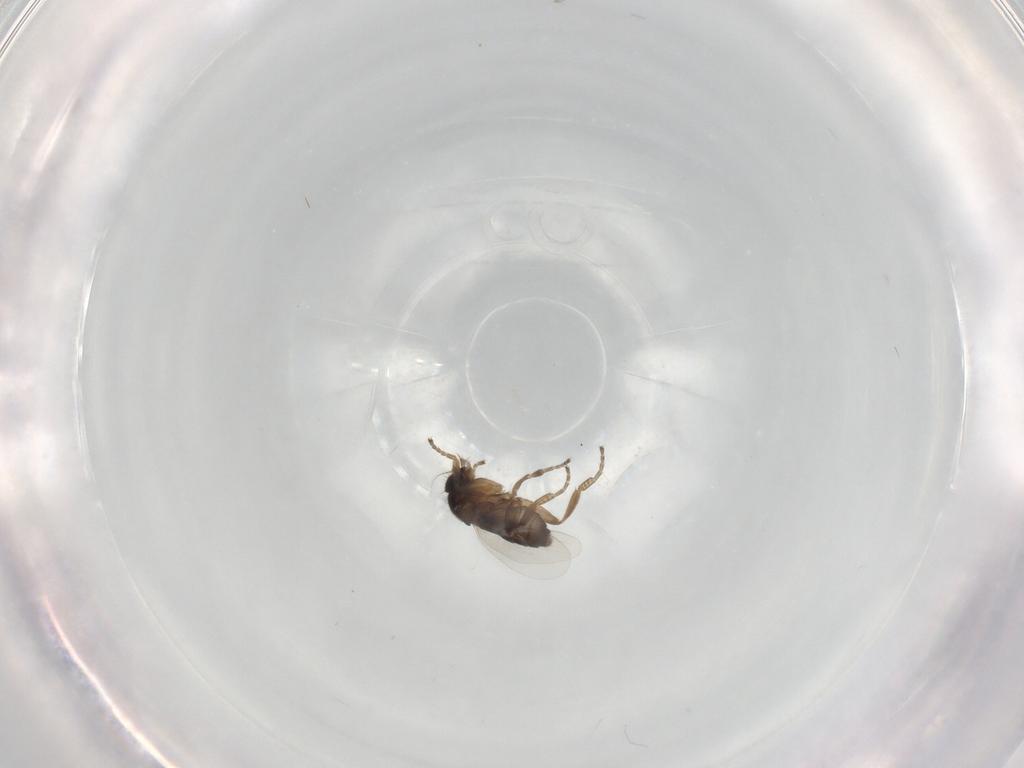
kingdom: Animalia
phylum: Arthropoda
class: Insecta
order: Diptera
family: Phoridae
